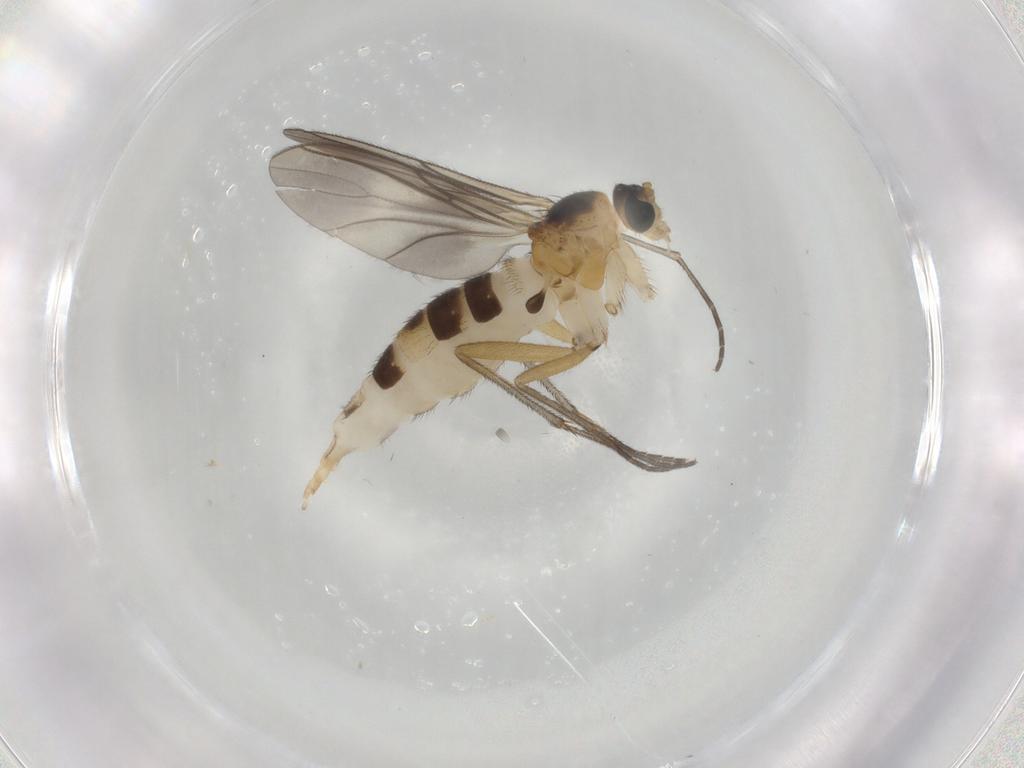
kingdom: Animalia
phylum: Arthropoda
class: Insecta
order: Diptera
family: Sciaridae
